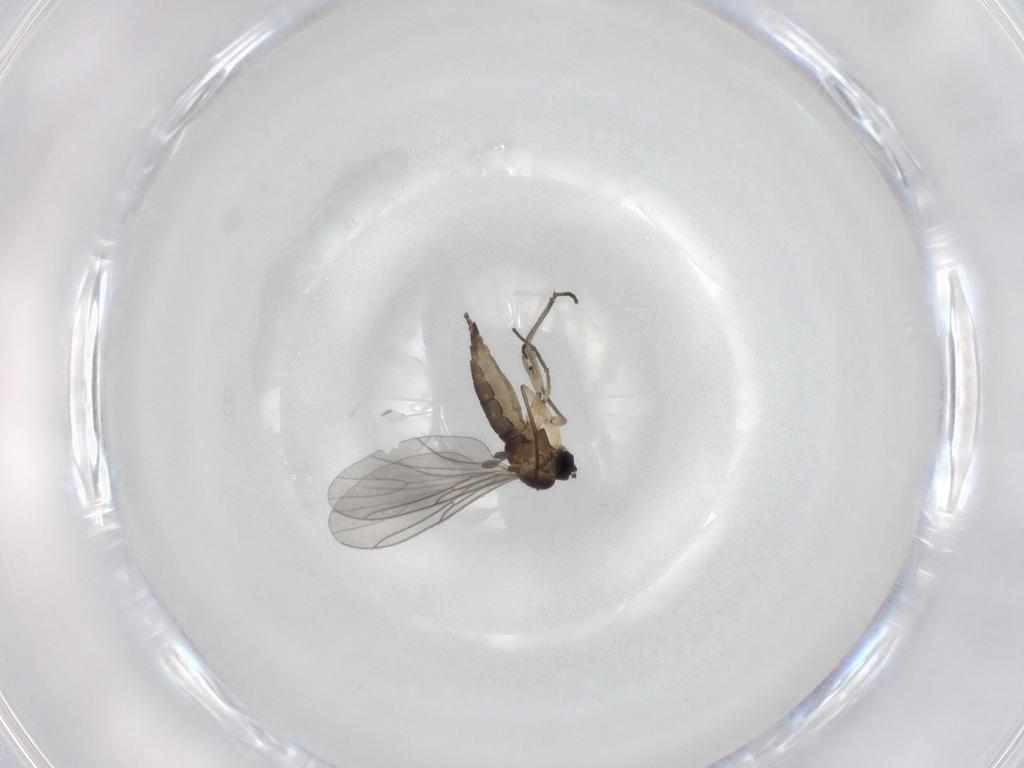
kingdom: Animalia
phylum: Arthropoda
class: Insecta
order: Diptera
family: Sciaridae
